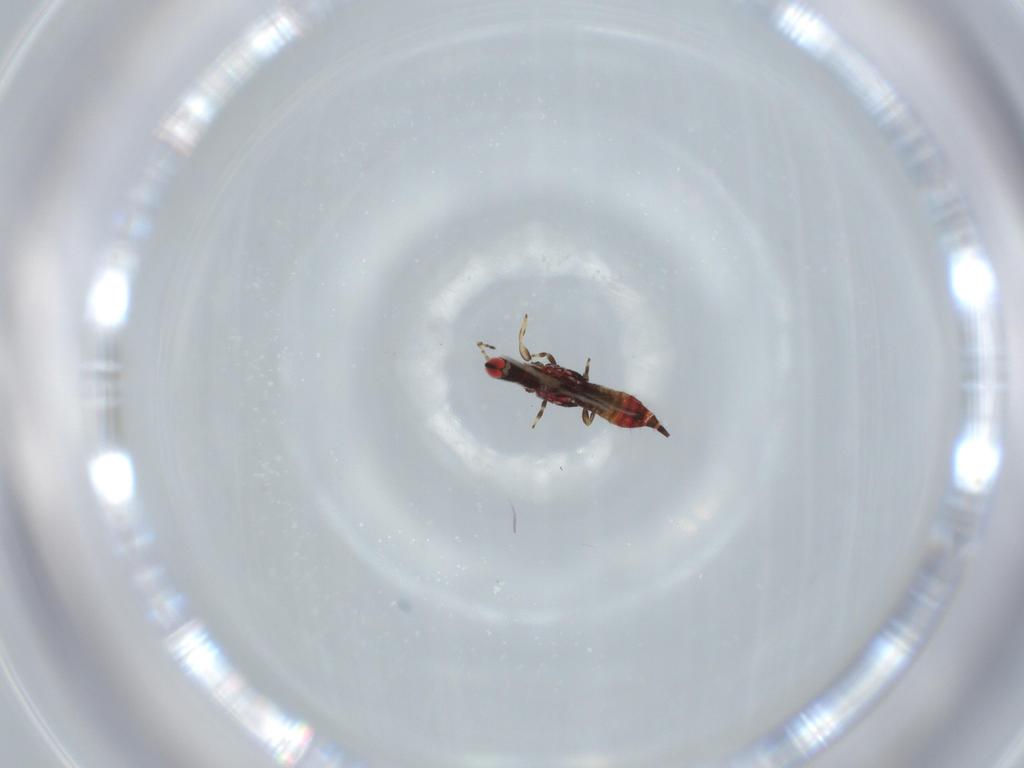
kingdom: Animalia
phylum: Arthropoda
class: Insecta
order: Thysanoptera
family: Phlaeothripidae
